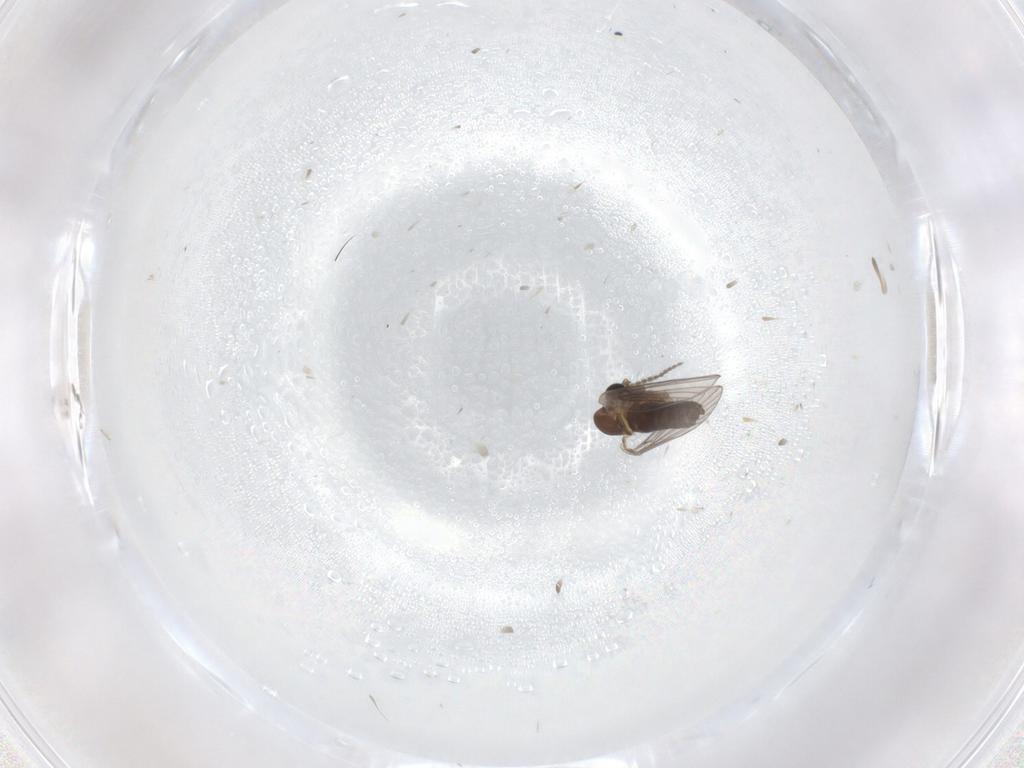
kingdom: Animalia
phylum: Arthropoda
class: Insecta
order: Diptera
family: Psychodidae
